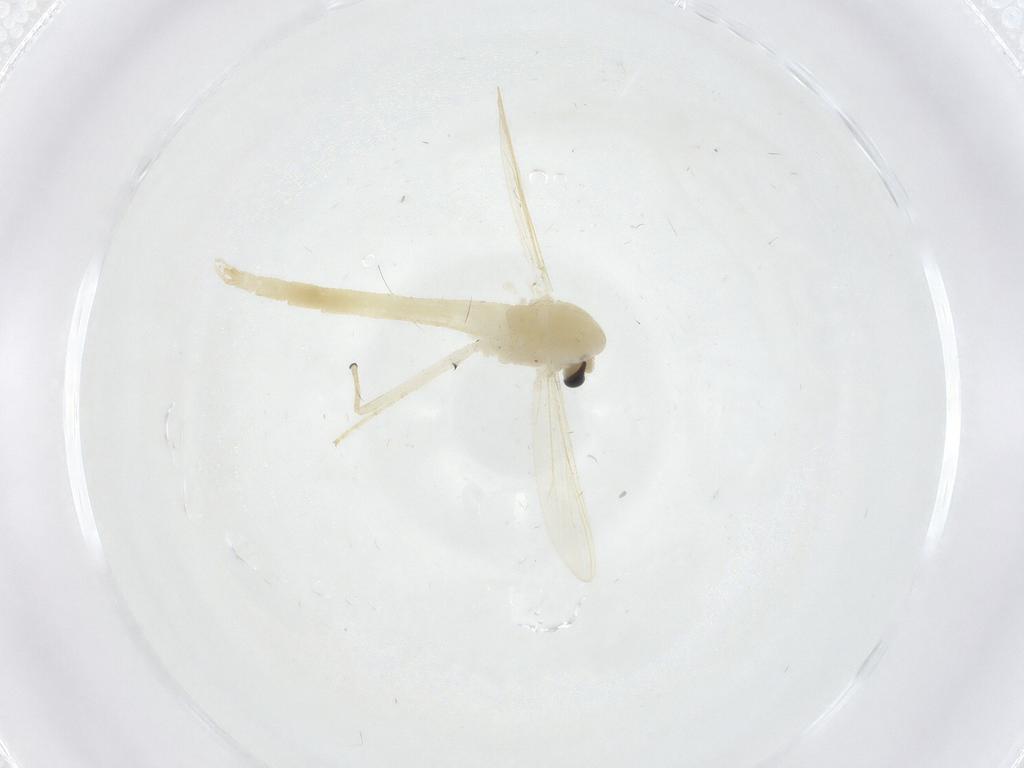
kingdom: Animalia
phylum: Arthropoda
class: Insecta
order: Diptera
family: Chironomidae
